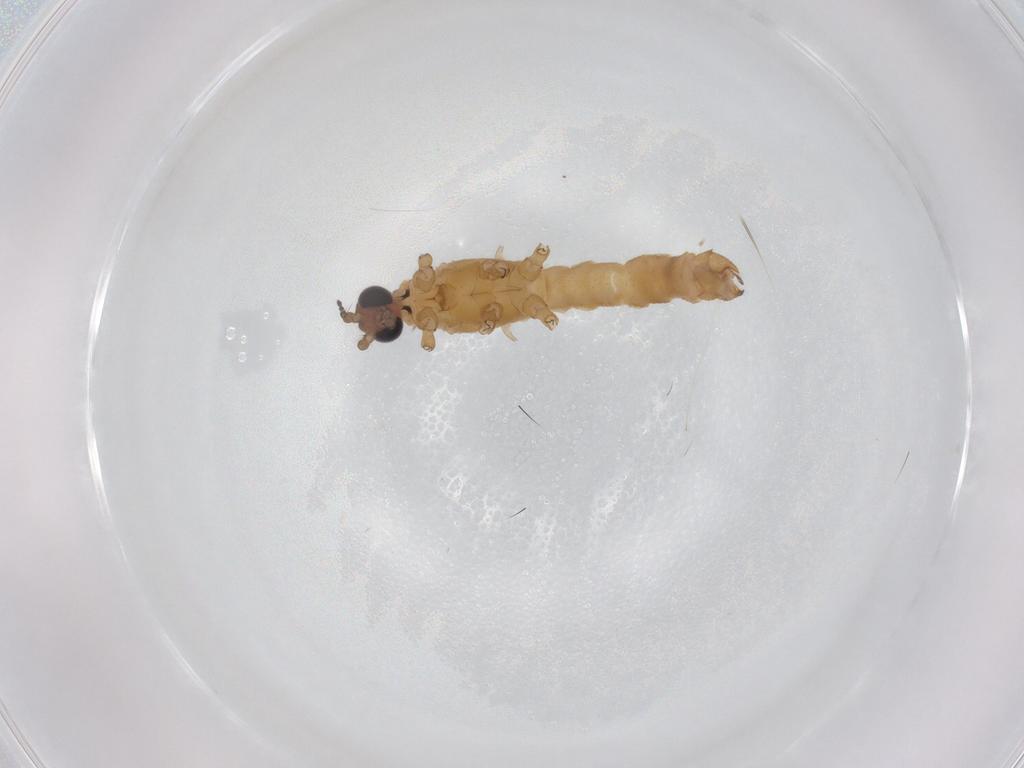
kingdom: Animalia
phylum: Arthropoda
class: Insecta
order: Diptera
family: Limoniidae
